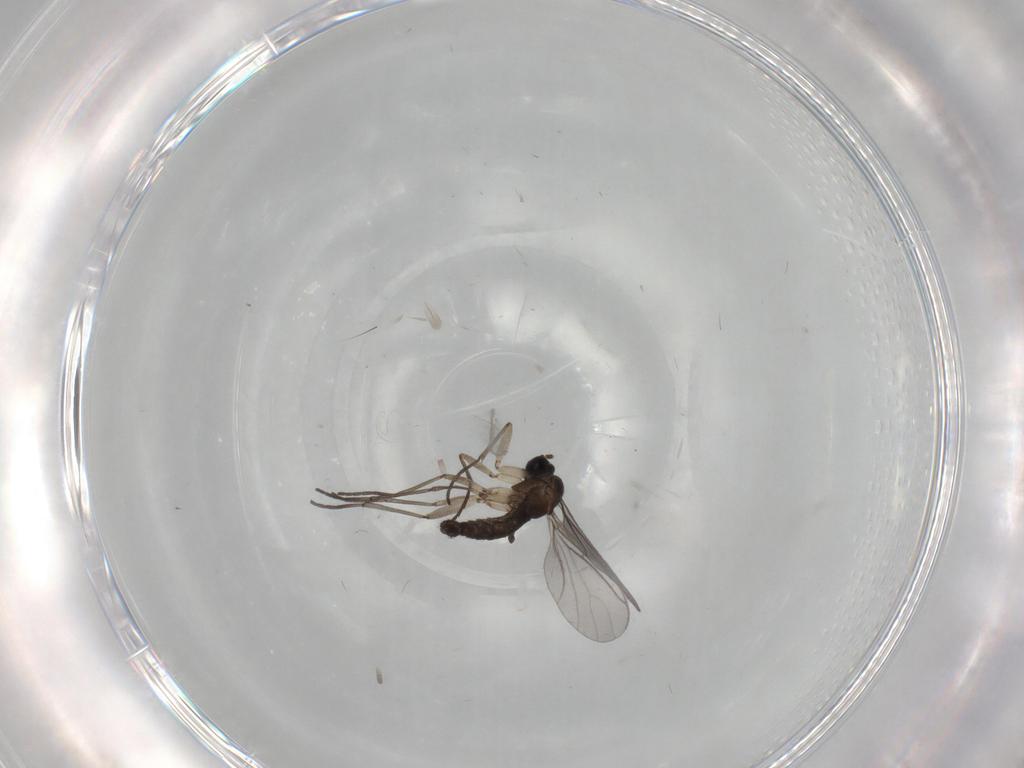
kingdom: Animalia
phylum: Arthropoda
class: Insecta
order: Diptera
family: Sciaridae
